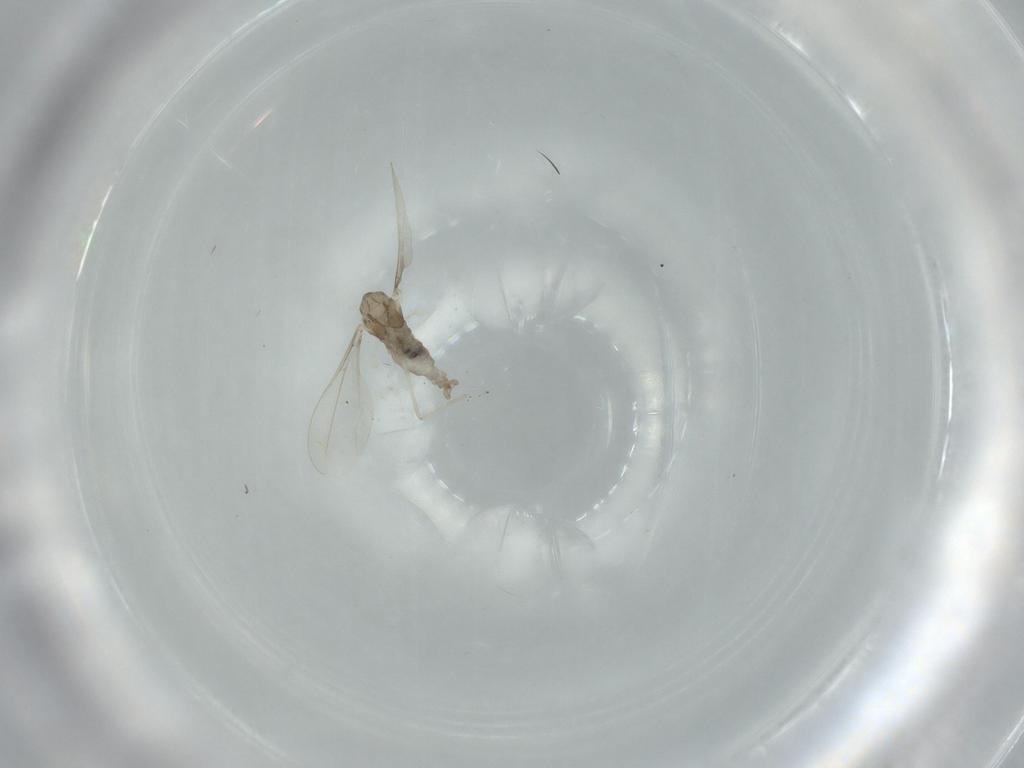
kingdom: Animalia
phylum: Arthropoda
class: Insecta
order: Diptera
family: Cecidomyiidae
